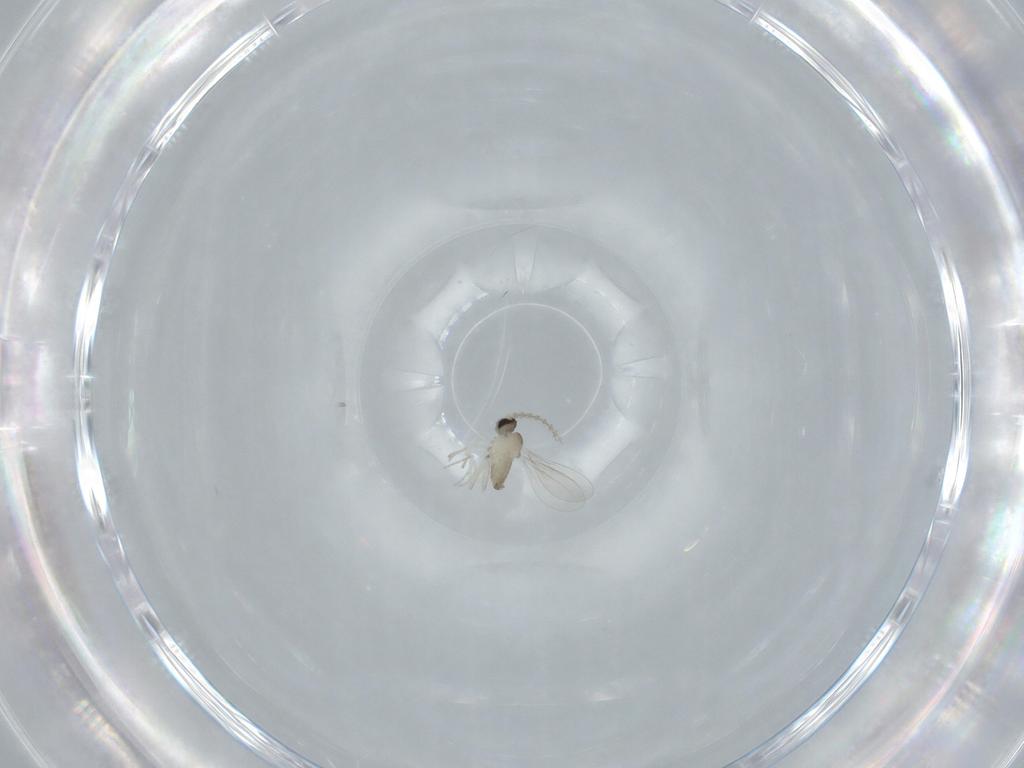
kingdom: Animalia
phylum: Arthropoda
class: Insecta
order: Diptera
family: Cecidomyiidae
